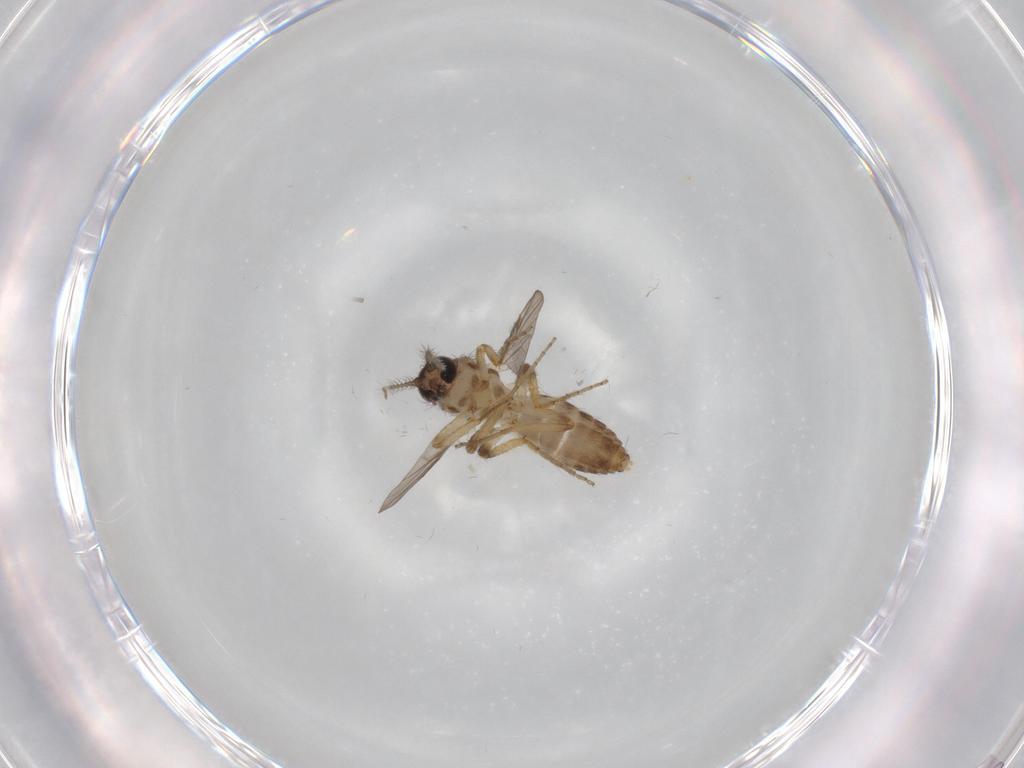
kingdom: Animalia
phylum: Arthropoda
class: Insecta
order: Diptera
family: Ceratopogonidae
